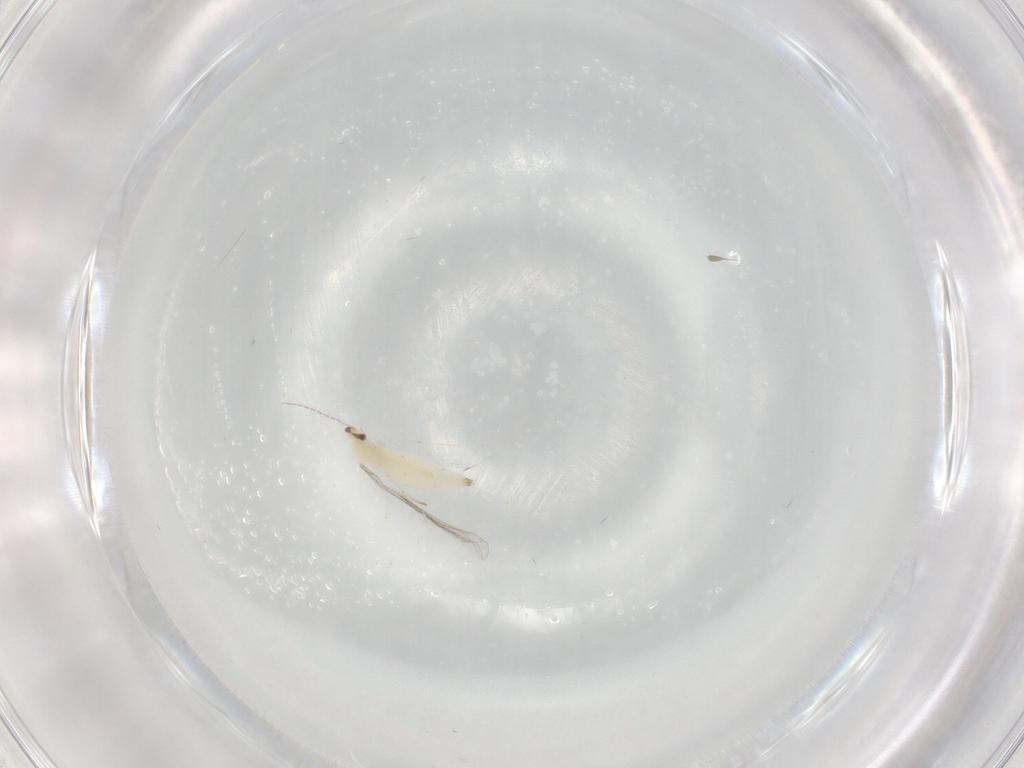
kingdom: Animalia
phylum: Arthropoda
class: Insecta
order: Diptera
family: Cecidomyiidae
